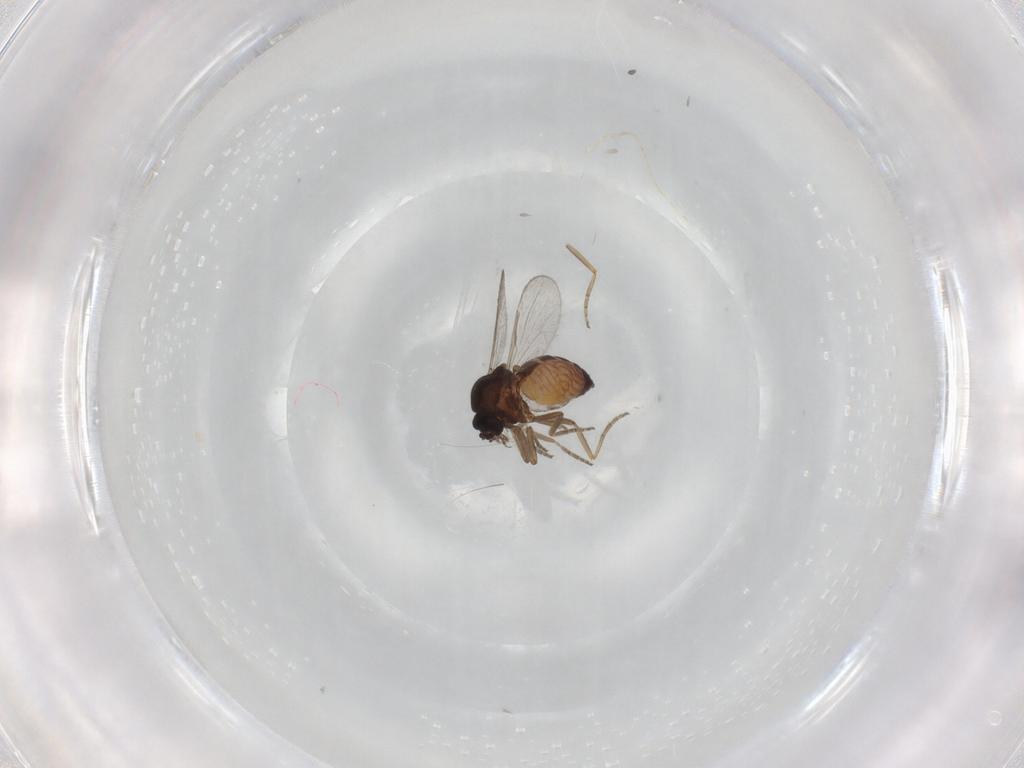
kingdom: Animalia
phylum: Arthropoda
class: Insecta
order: Diptera
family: Ceratopogonidae
